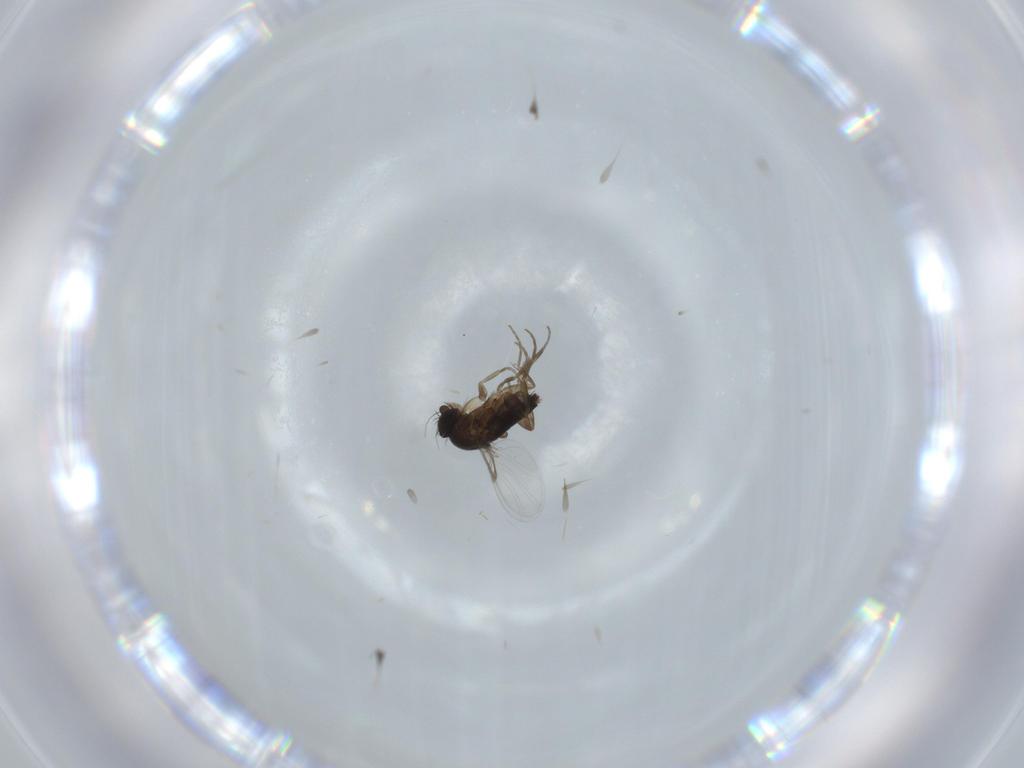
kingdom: Animalia
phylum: Arthropoda
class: Insecta
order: Diptera
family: Phoridae
